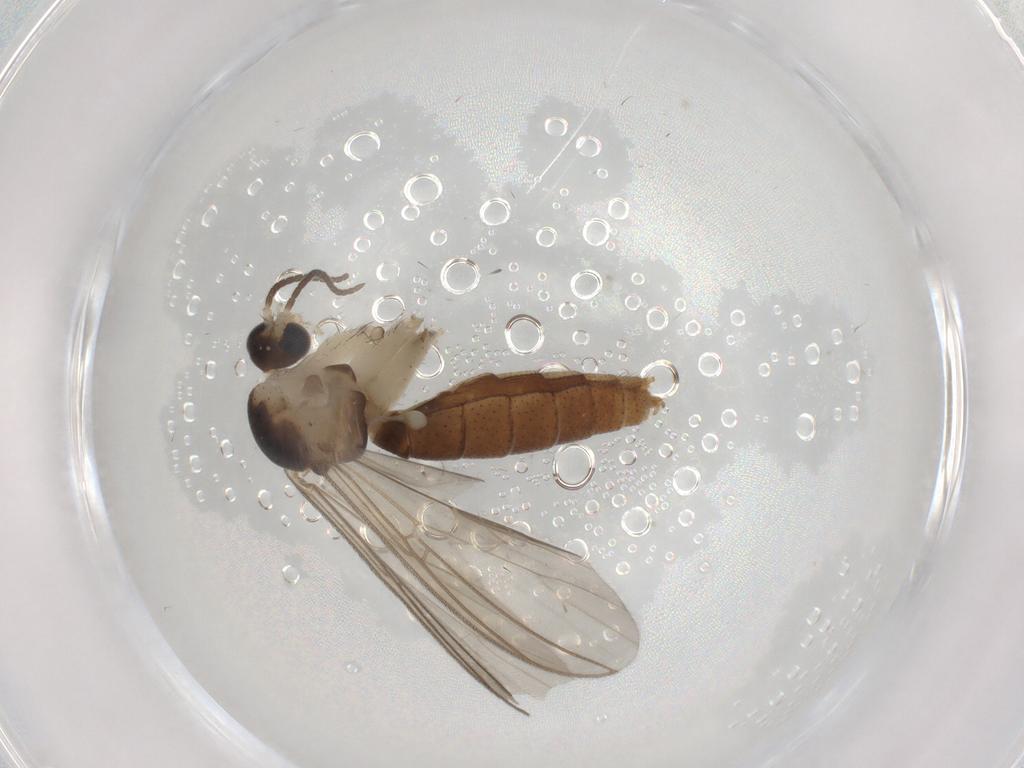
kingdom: Animalia
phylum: Arthropoda
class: Insecta
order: Diptera
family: Mycetophilidae
